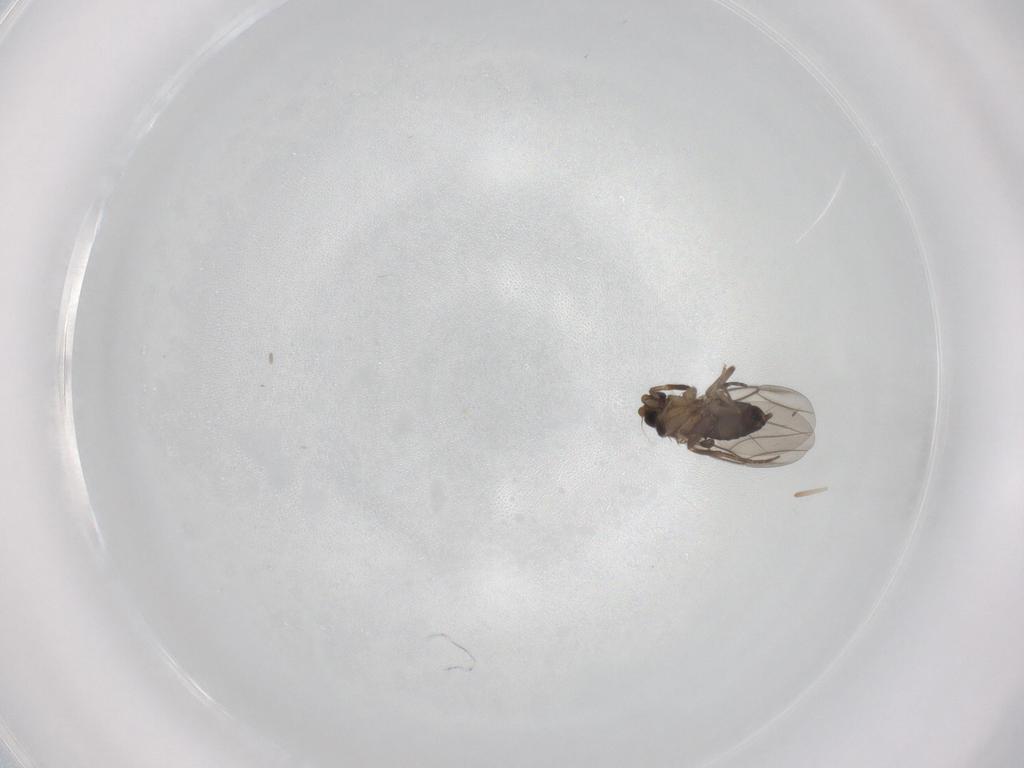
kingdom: Animalia
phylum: Arthropoda
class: Insecta
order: Diptera
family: Phoridae
